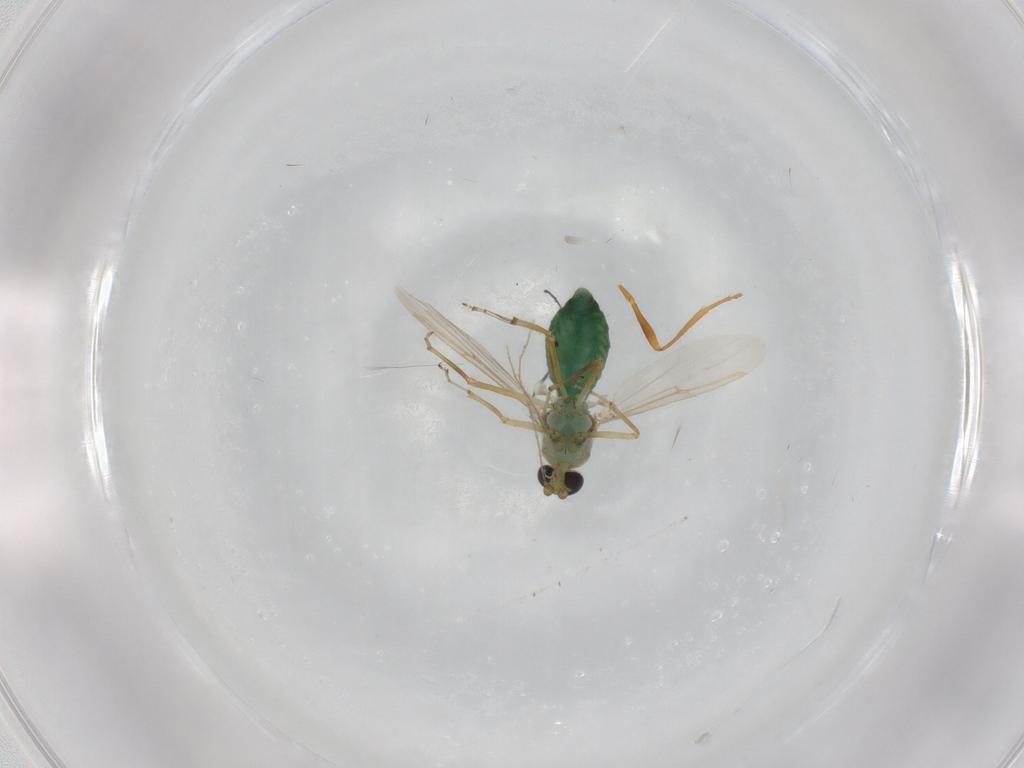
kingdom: Animalia
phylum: Arthropoda
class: Insecta
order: Diptera
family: Ceratopogonidae
